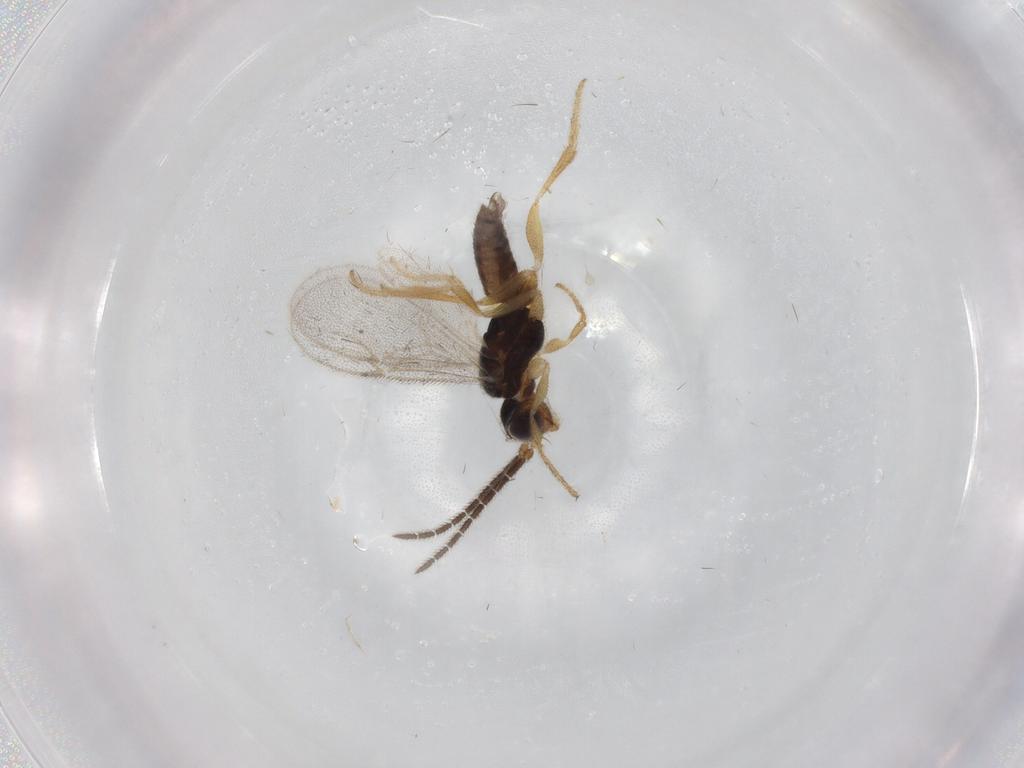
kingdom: Animalia
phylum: Arthropoda
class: Insecta
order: Hymenoptera
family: Dryinidae
